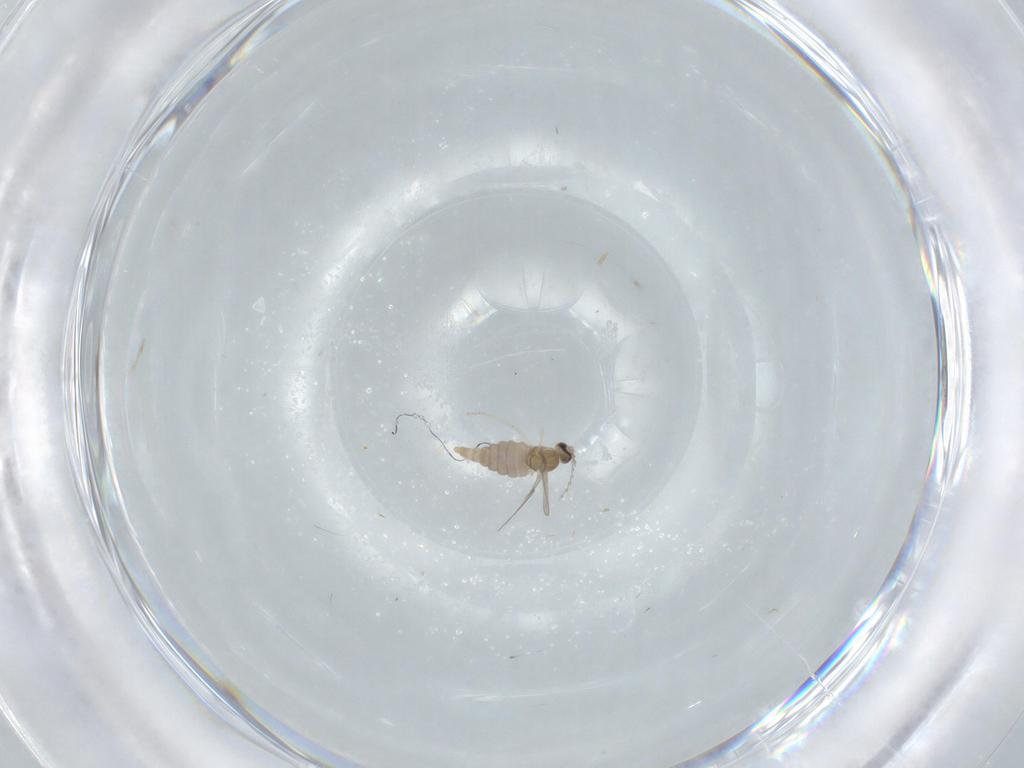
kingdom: Animalia
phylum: Arthropoda
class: Insecta
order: Diptera
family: Cecidomyiidae
